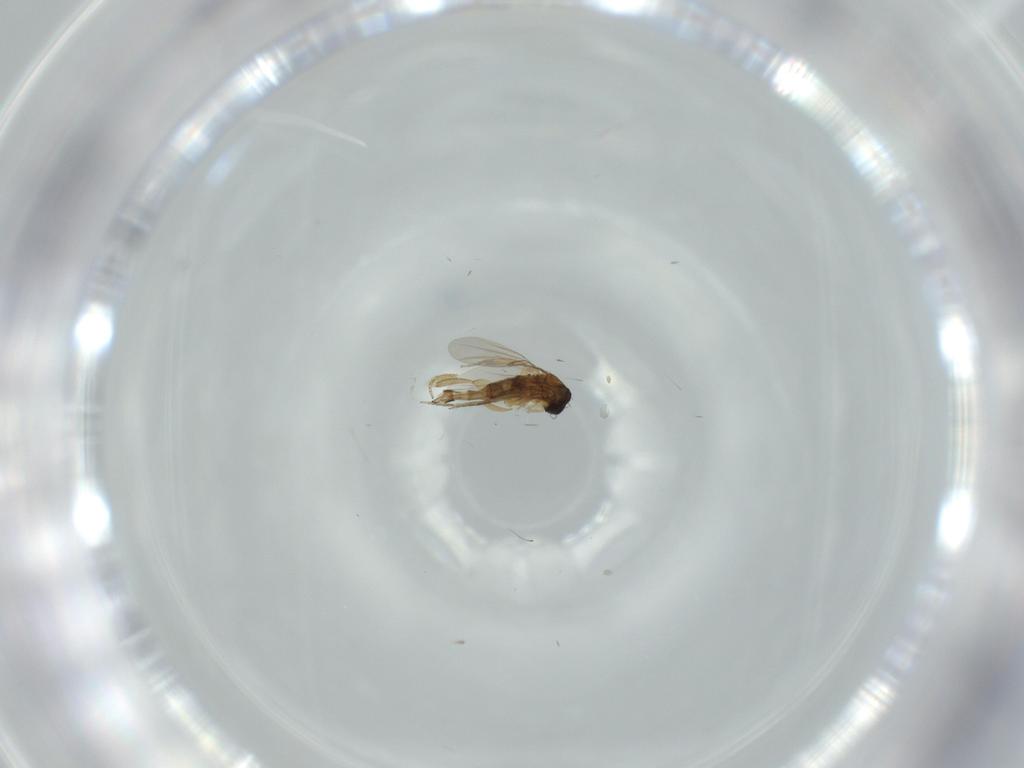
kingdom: Animalia
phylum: Arthropoda
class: Insecta
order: Diptera
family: Phoridae
